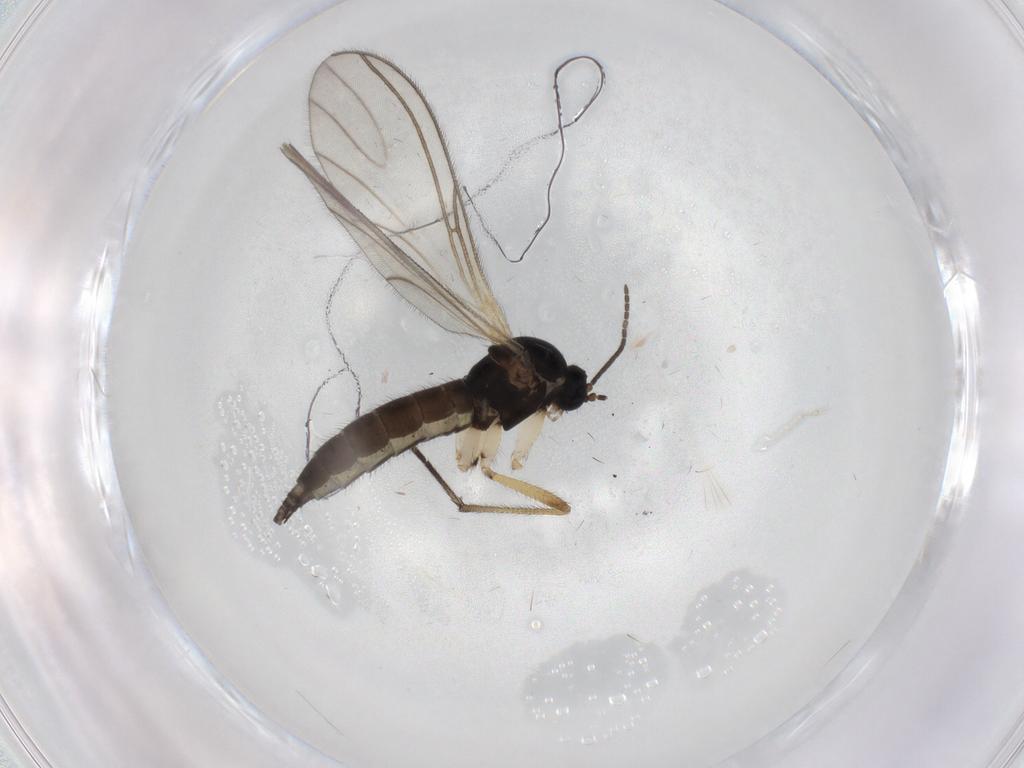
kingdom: Animalia
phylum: Arthropoda
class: Insecta
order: Diptera
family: Sciaridae
